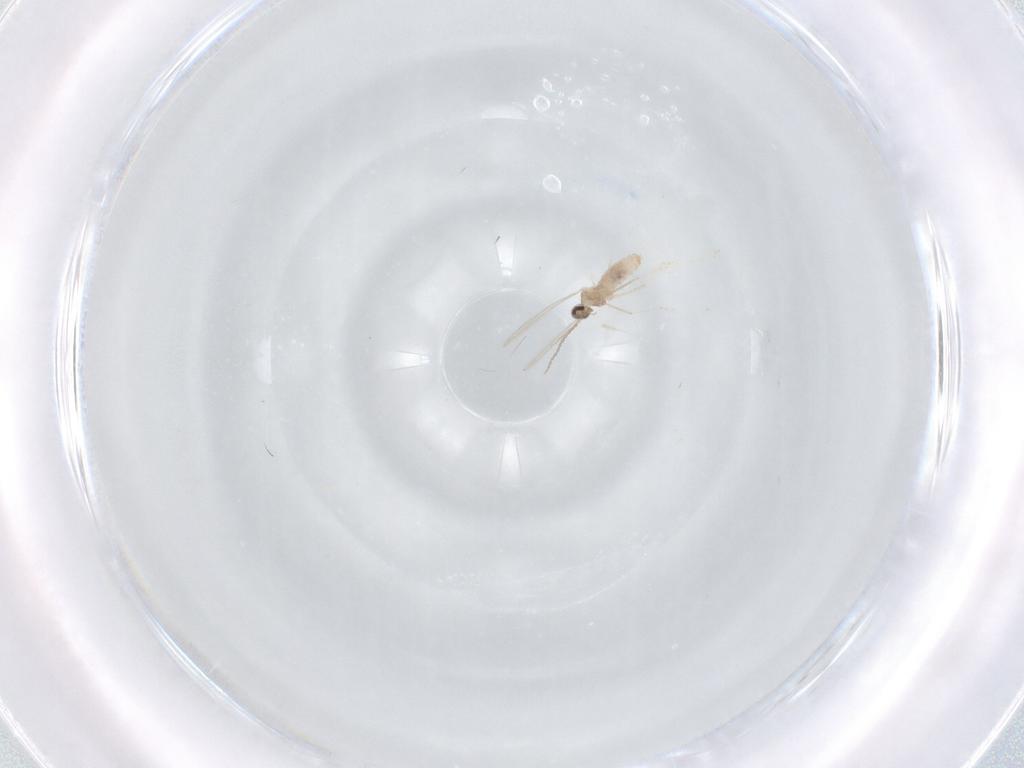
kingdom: Animalia
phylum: Arthropoda
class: Insecta
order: Diptera
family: Cecidomyiidae
